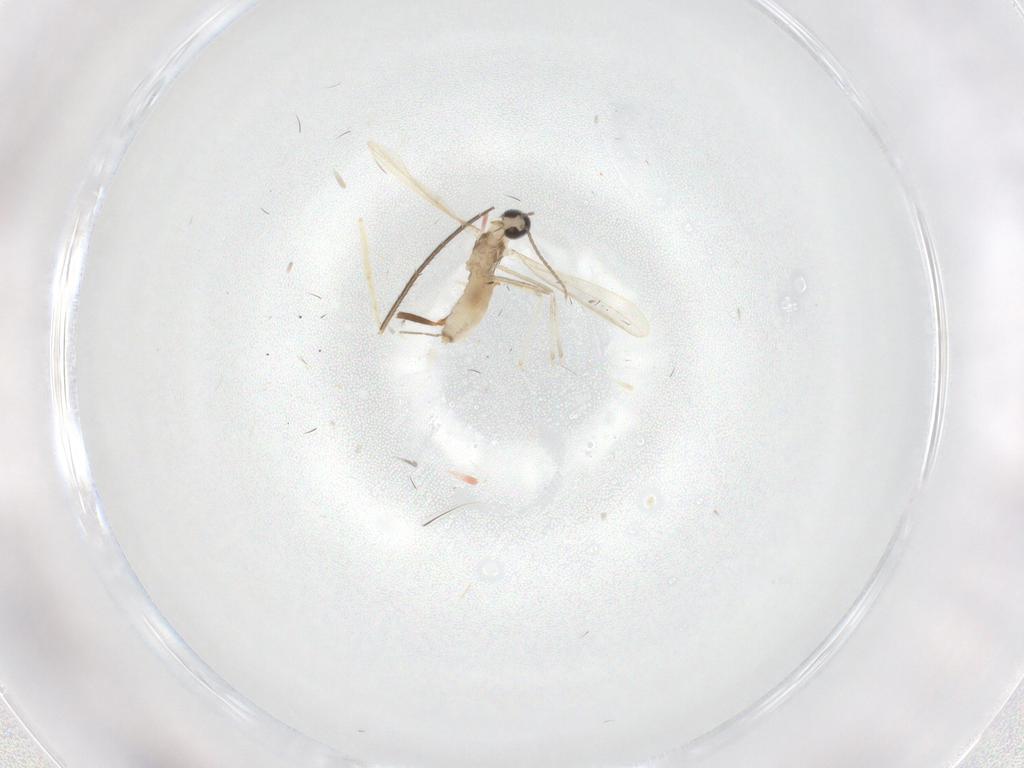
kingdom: Animalia
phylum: Arthropoda
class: Insecta
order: Diptera
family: Cecidomyiidae
